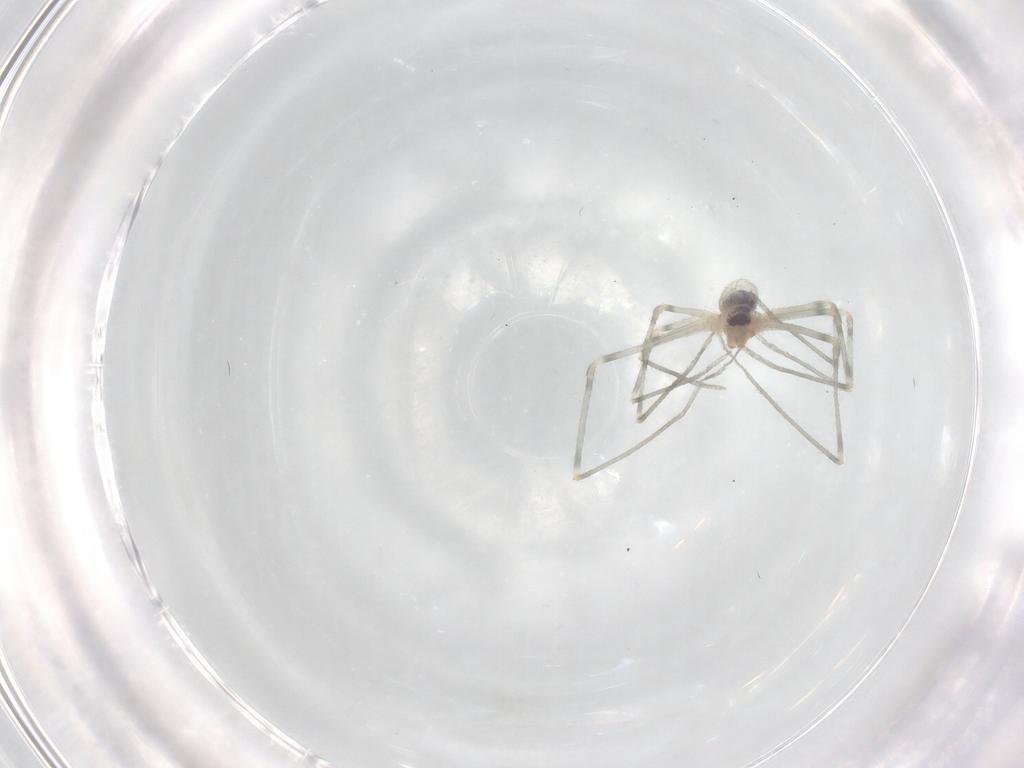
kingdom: Animalia
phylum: Arthropoda
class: Arachnida
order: Araneae
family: Pholcidae
